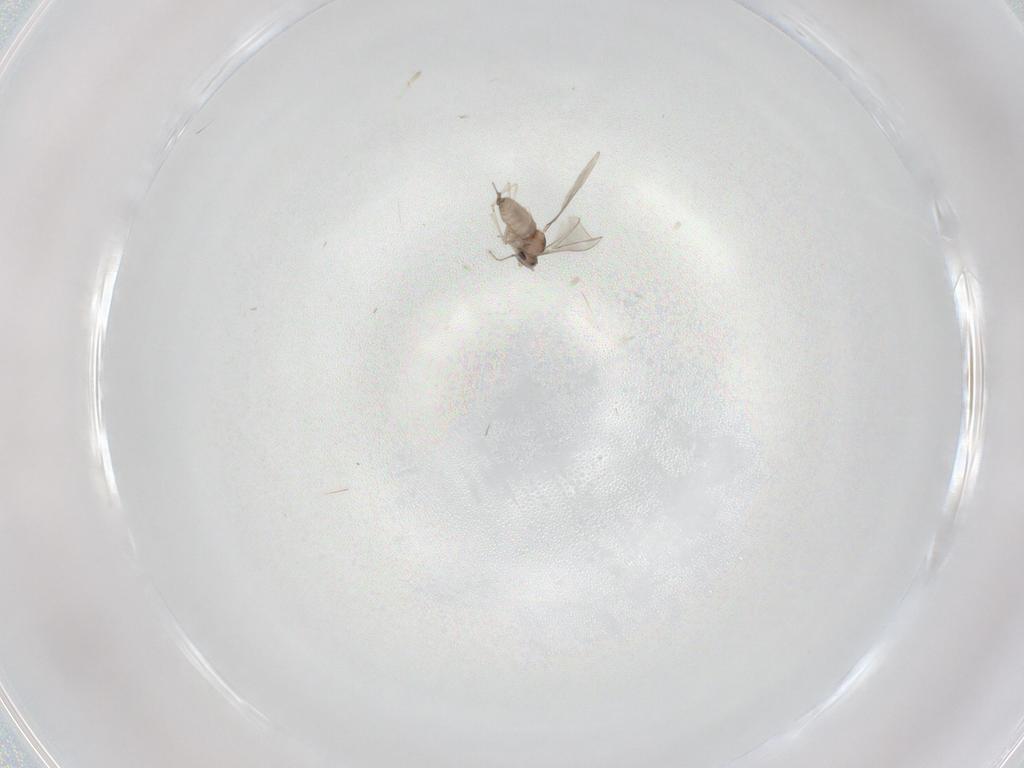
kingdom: Animalia
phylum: Arthropoda
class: Insecta
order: Diptera
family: Cecidomyiidae
